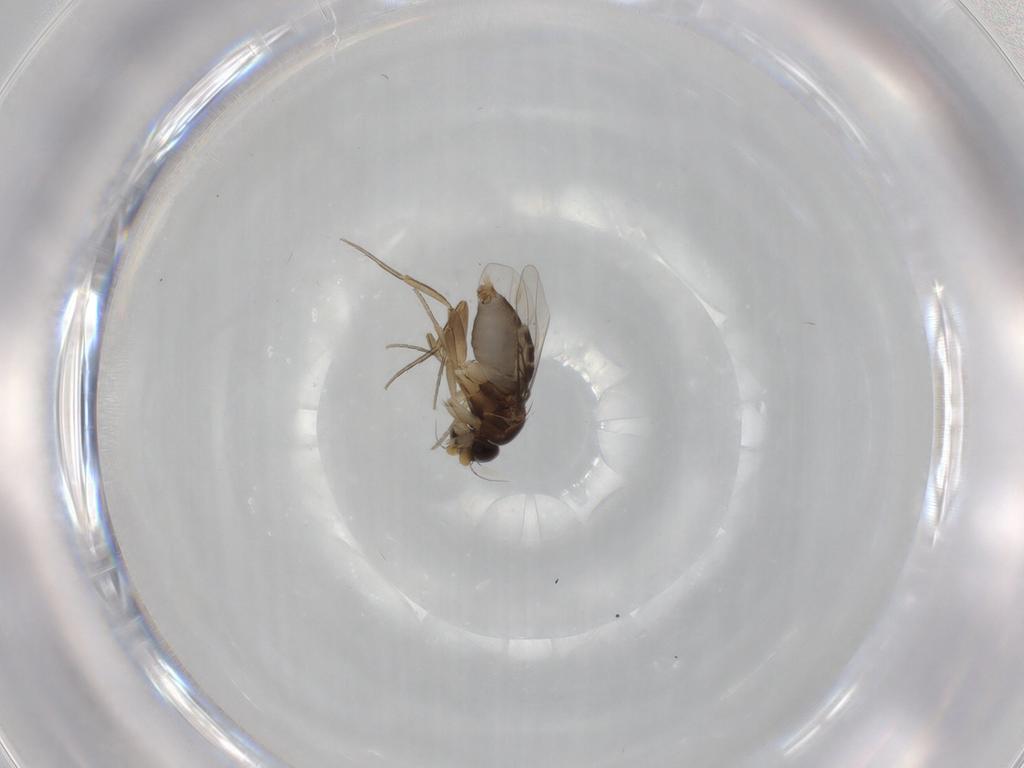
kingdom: Animalia
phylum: Arthropoda
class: Insecta
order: Diptera
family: Phoridae
